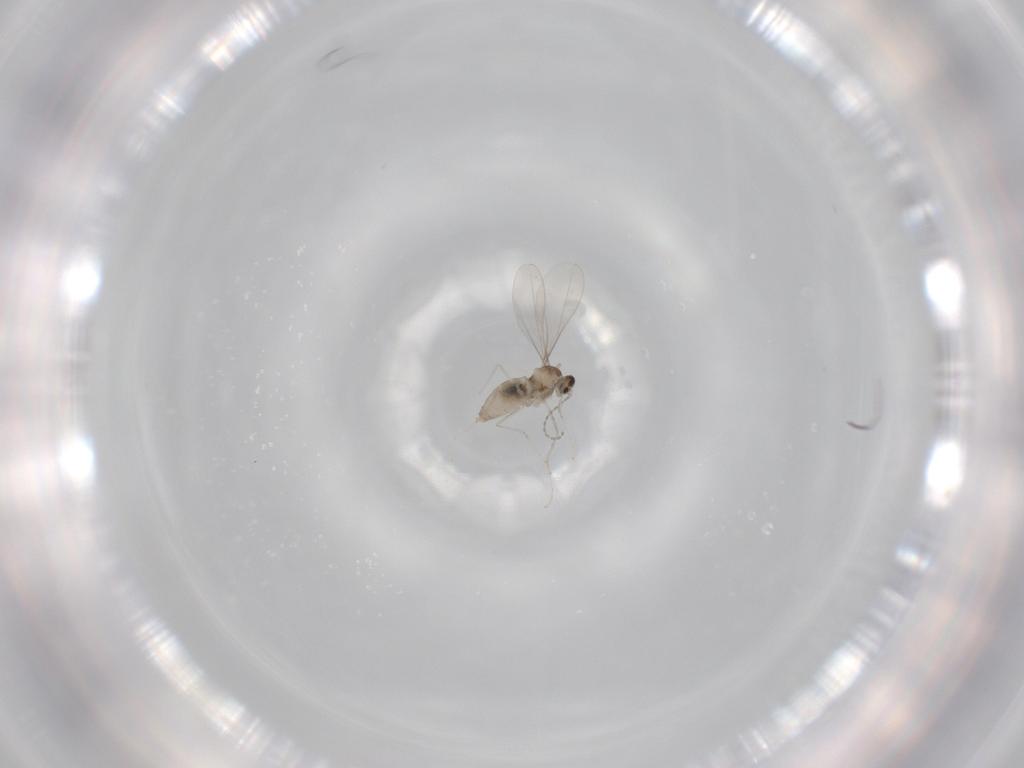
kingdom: Animalia
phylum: Arthropoda
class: Insecta
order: Diptera
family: Cecidomyiidae
